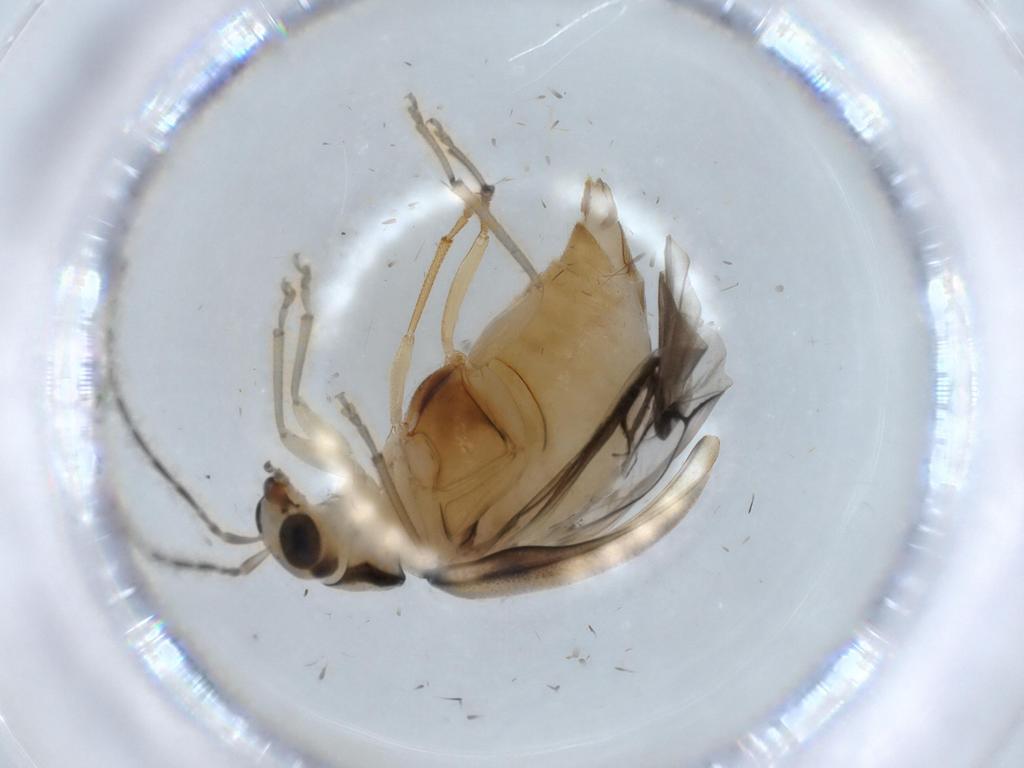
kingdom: Animalia
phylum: Arthropoda
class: Insecta
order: Coleoptera
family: Chrysomelidae
